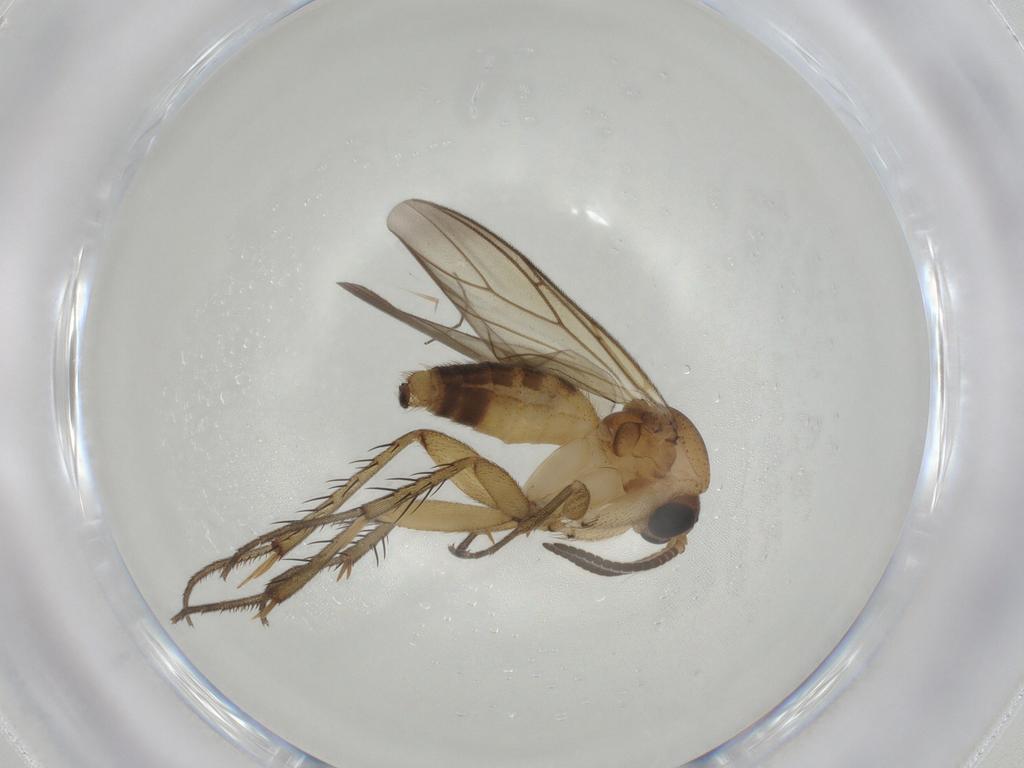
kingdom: Animalia
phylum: Arthropoda
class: Insecta
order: Diptera
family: Mycetophilidae
